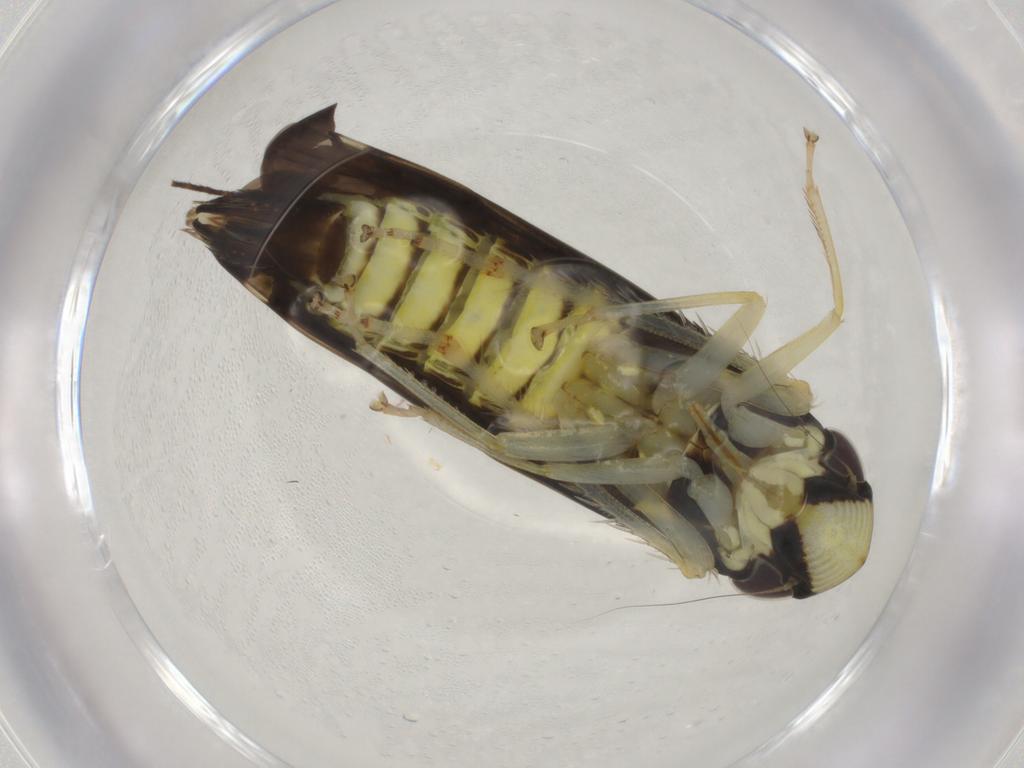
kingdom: Animalia
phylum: Arthropoda
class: Insecta
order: Hemiptera
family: Cicadellidae
